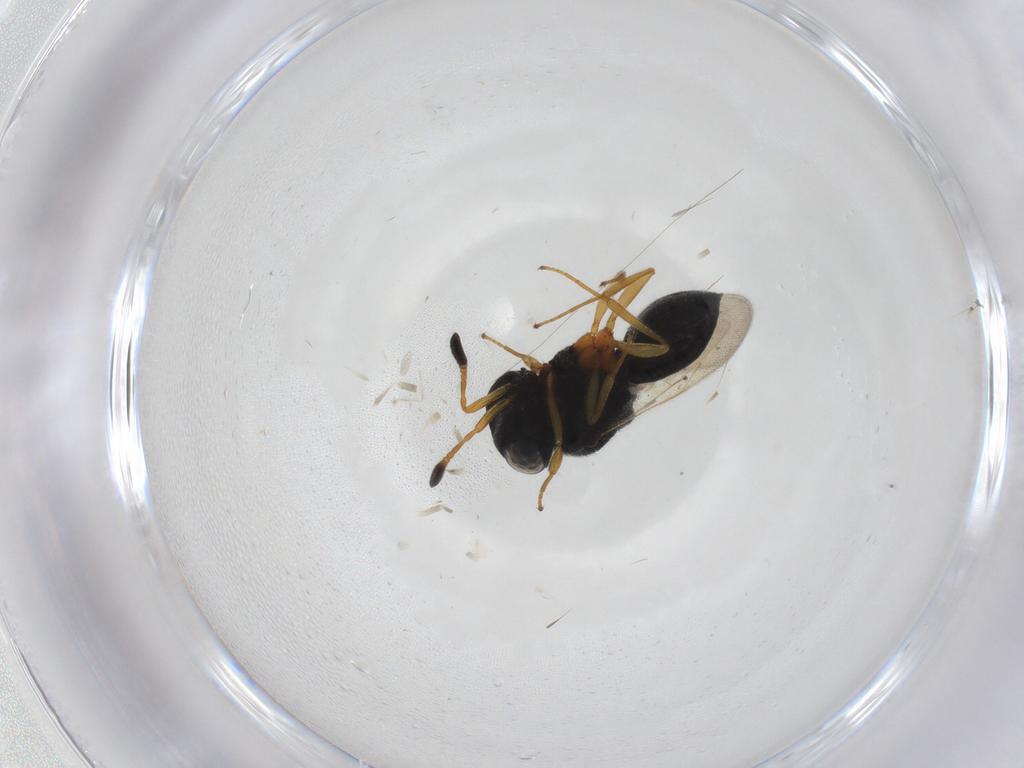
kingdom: Animalia
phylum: Arthropoda
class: Insecta
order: Hymenoptera
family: Scelionidae
